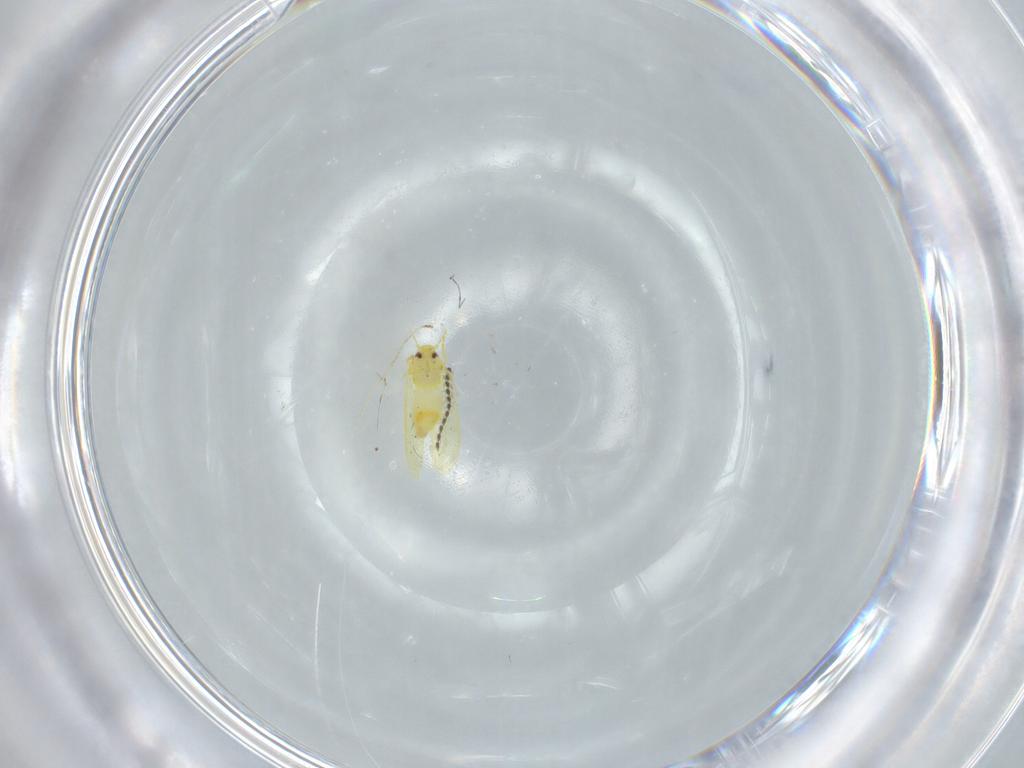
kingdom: Animalia
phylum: Arthropoda
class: Insecta
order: Hemiptera
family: Aleyrodidae
